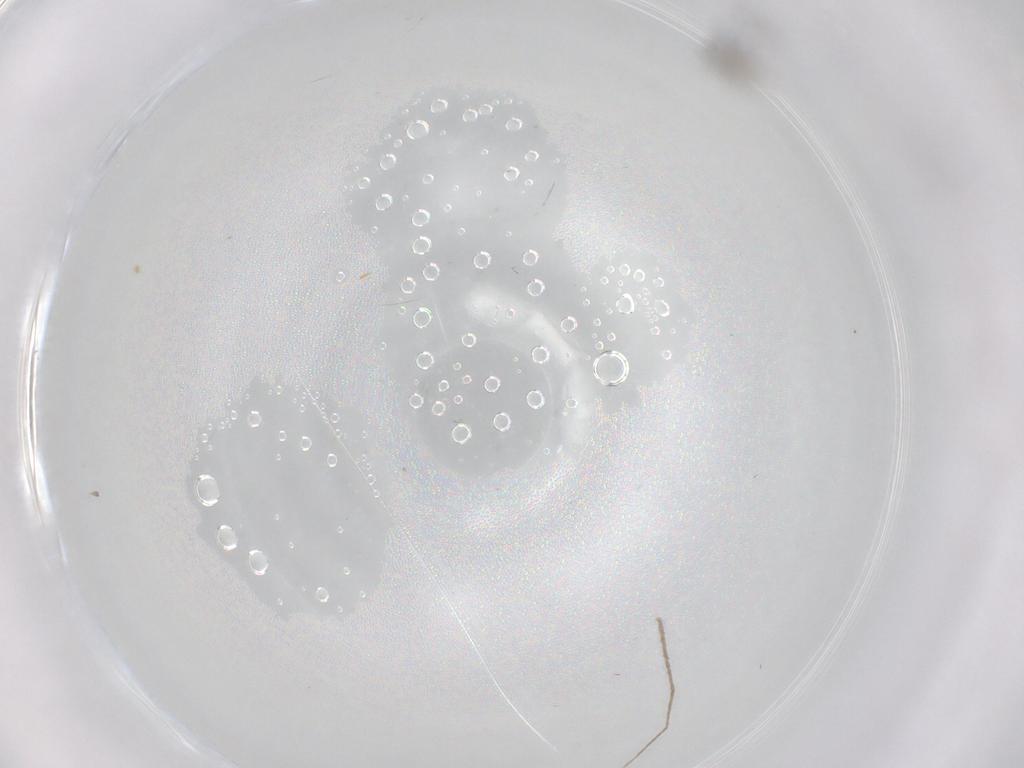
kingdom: Animalia
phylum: Arthropoda
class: Insecta
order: Diptera
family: Cecidomyiidae
